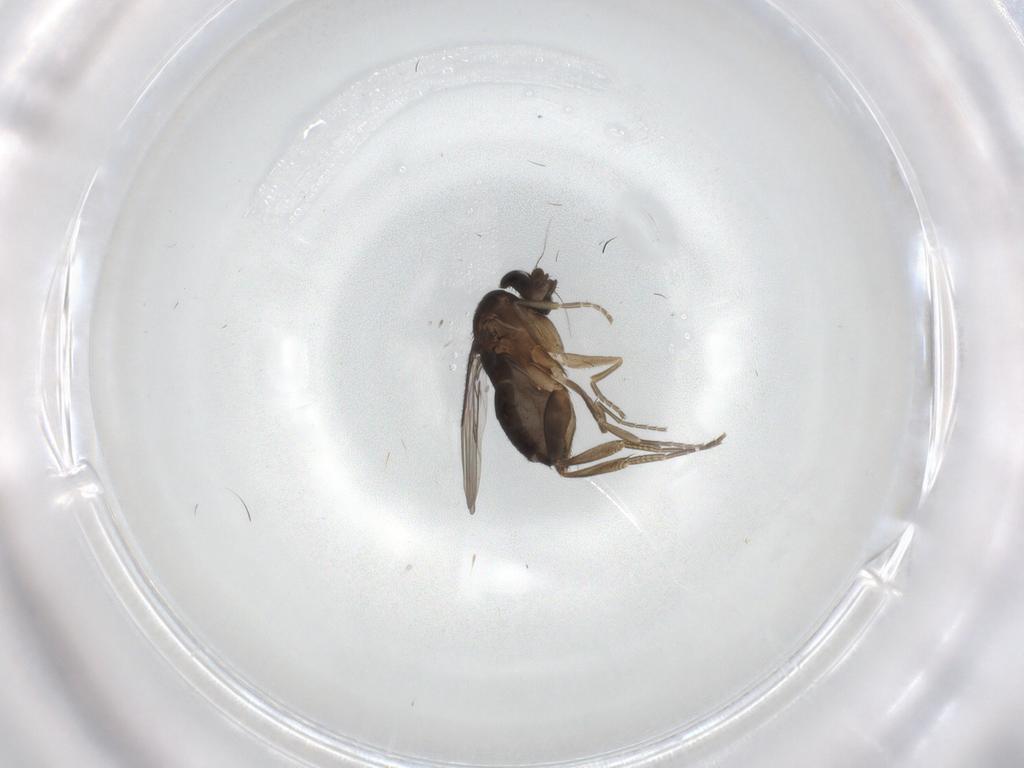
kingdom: Animalia
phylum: Arthropoda
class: Insecta
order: Diptera
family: Phoridae
